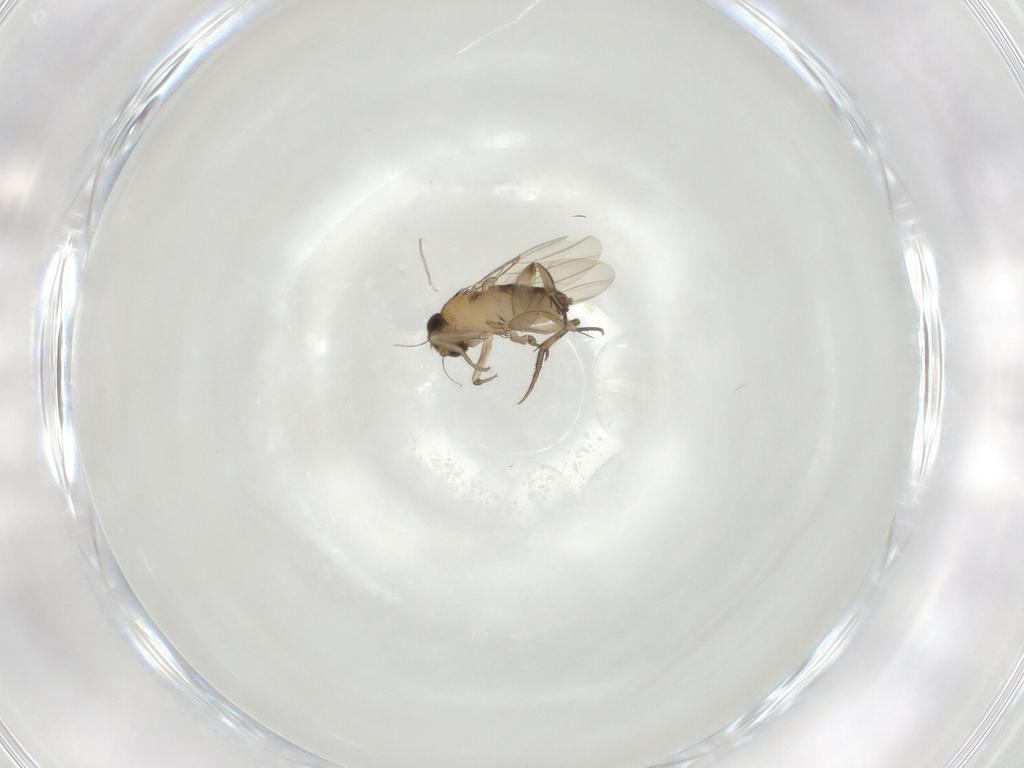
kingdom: Animalia
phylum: Arthropoda
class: Insecta
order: Diptera
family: Phoridae
